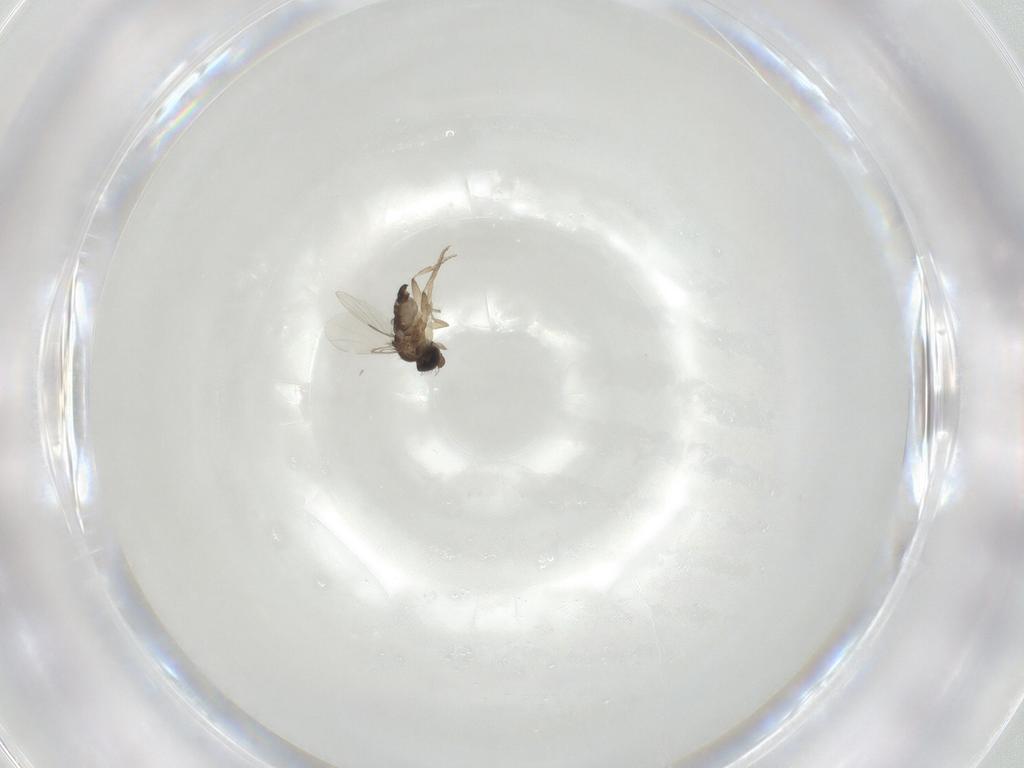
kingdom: Animalia
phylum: Arthropoda
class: Insecta
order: Diptera
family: Phoridae
